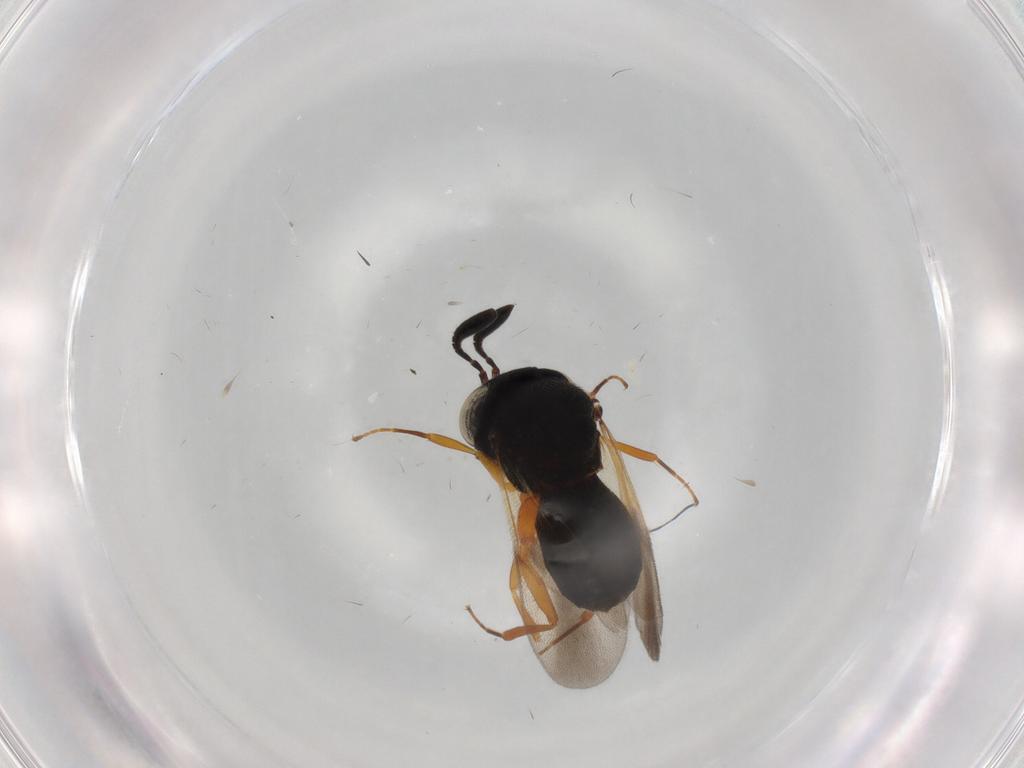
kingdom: Animalia
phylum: Arthropoda
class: Insecta
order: Hymenoptera
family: Scelionidae
